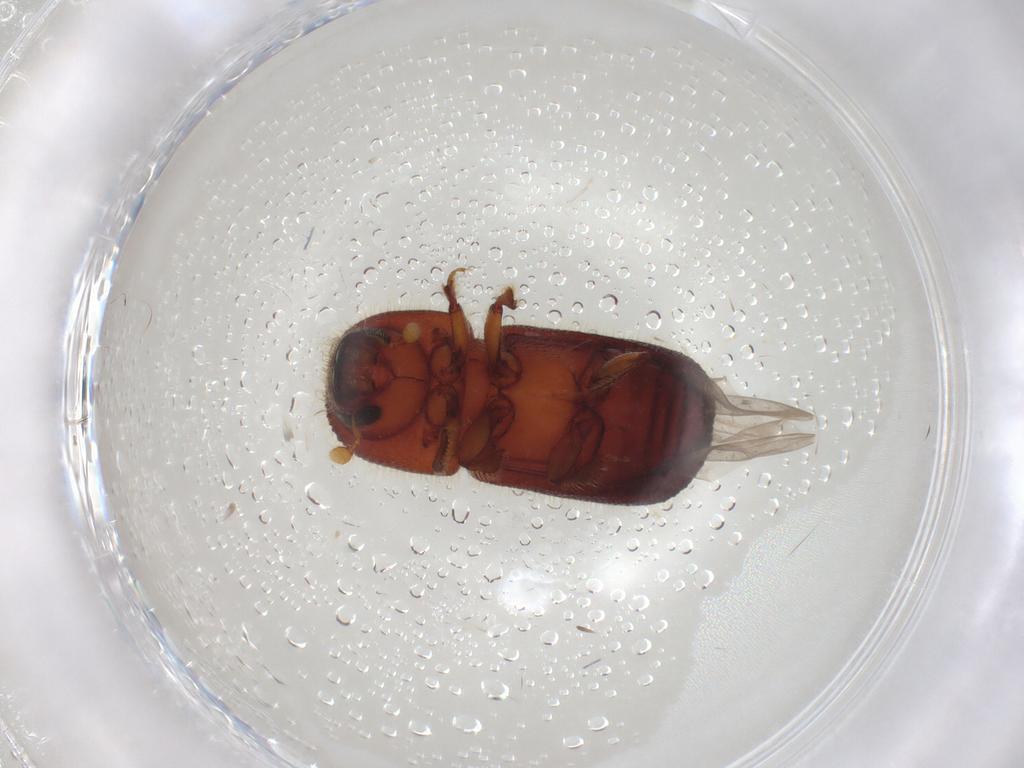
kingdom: Animalia
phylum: Arthropoda
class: Insecta
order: Coleoptera
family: Curculionidae
